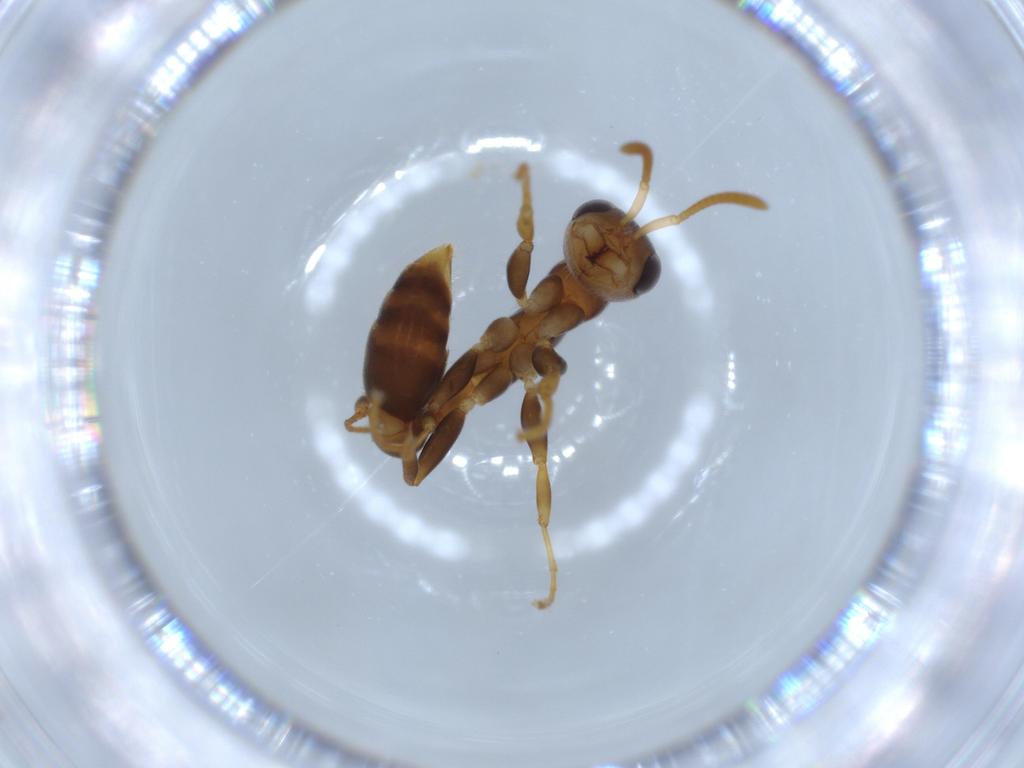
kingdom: Animalia
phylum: Arthropoda
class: Insecta
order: Hymenoptera
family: Formicidae
